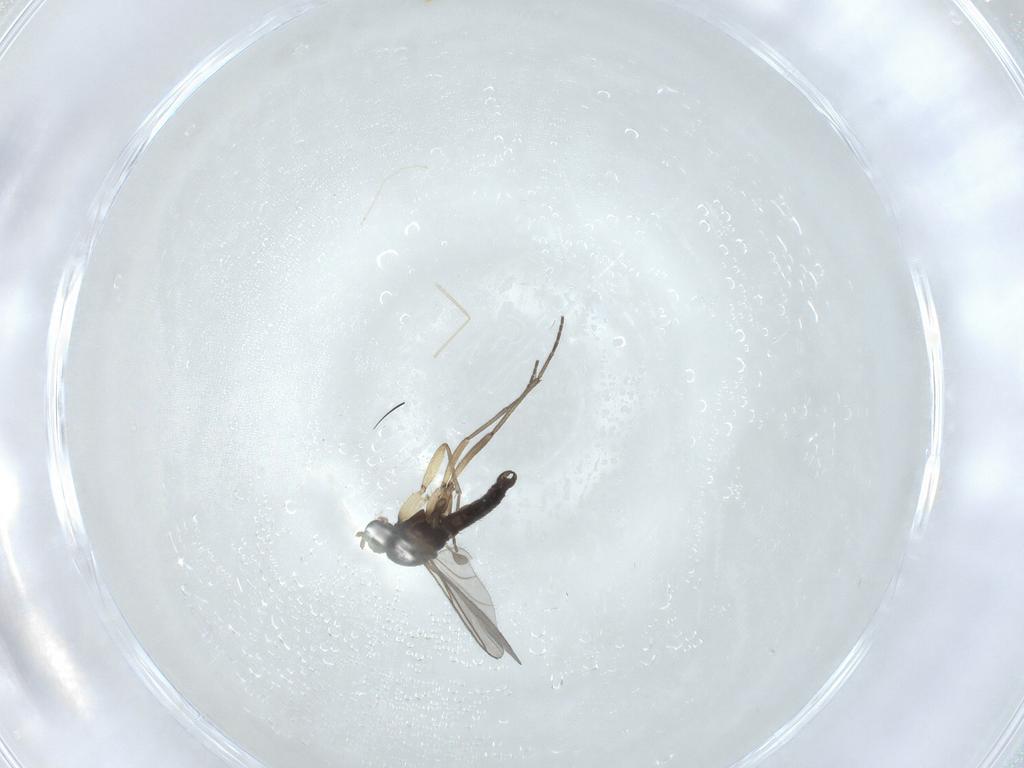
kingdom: Animalia
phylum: Arthropoda
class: Insecta
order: Diptera
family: Sciaridae
